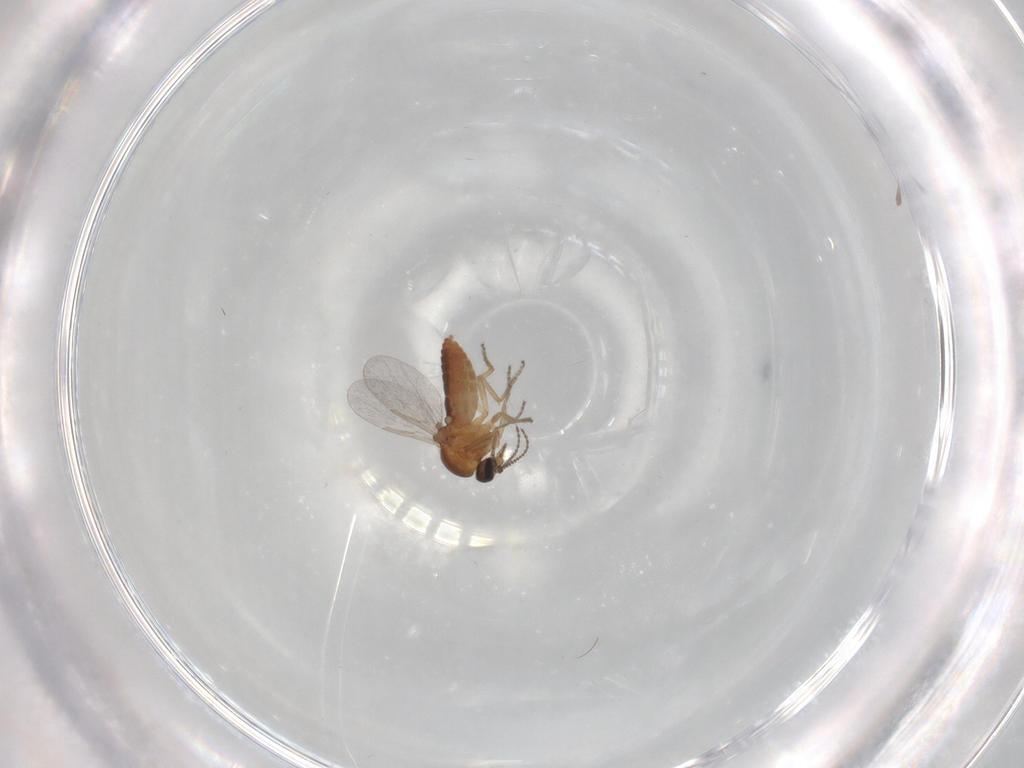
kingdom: Animalia
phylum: Arthropoda
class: Insecta
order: Diptera
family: Ceratopogonidae
